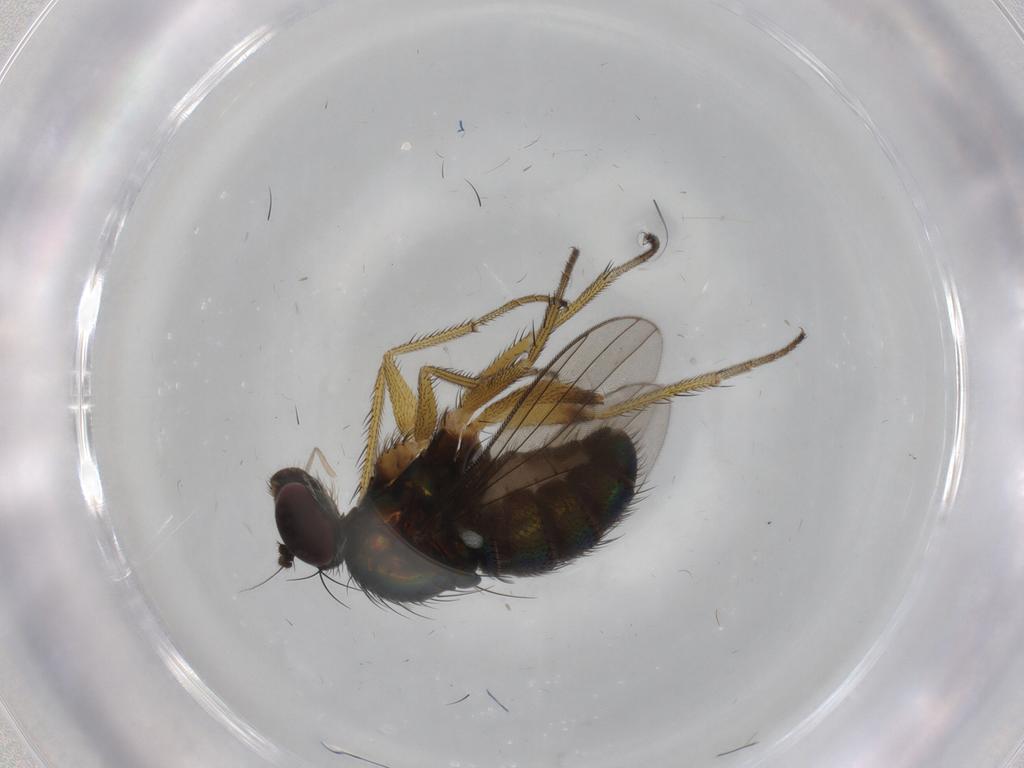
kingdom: Animalia
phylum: Arthropoda
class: Insecta
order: Diptera
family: Dolichopodidae
